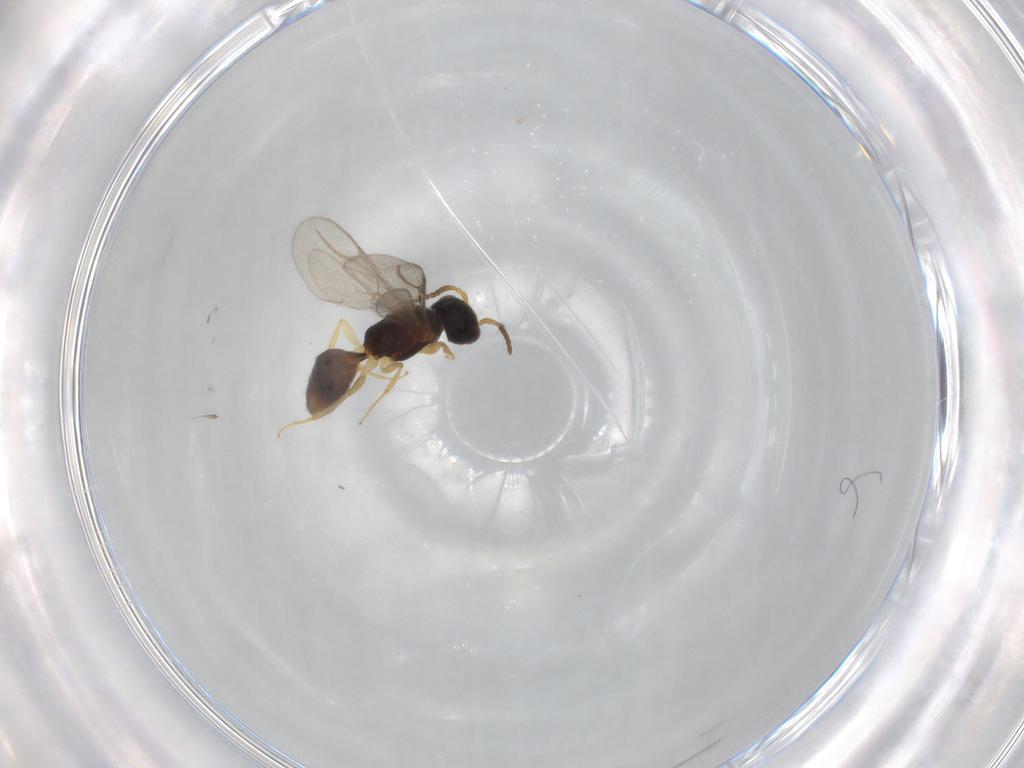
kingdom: Animalia
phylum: Arthropoda
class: Insecta
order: Hymenoptera
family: Bethylidae
